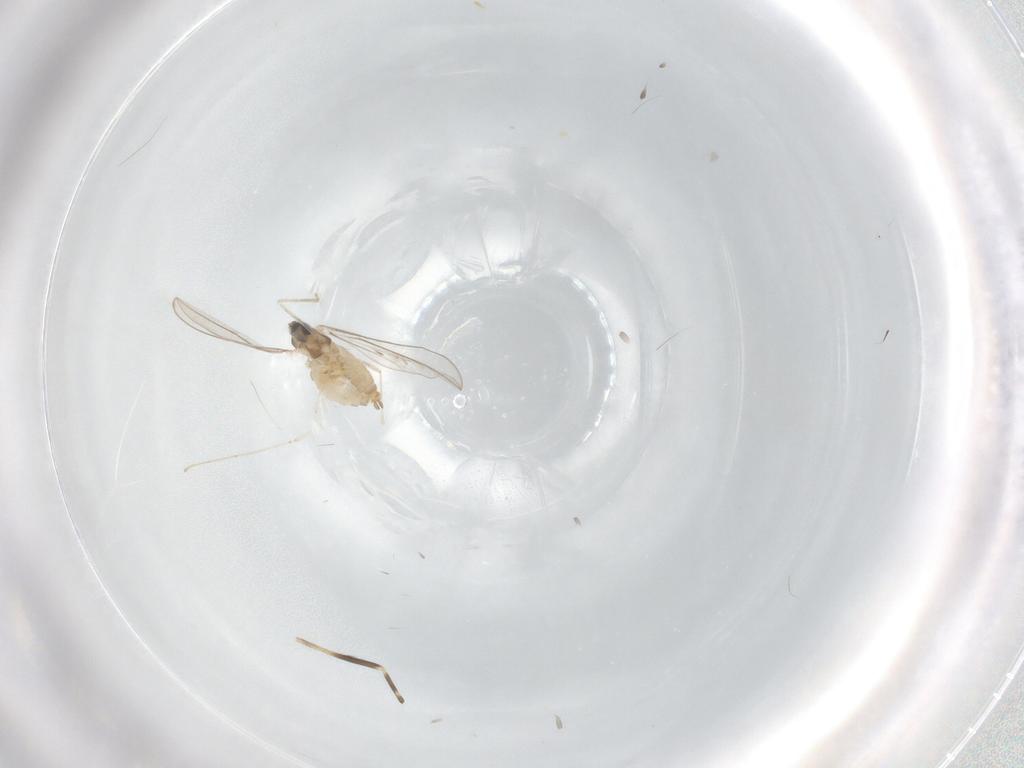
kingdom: Animalia
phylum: Arthropoda
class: Insecta
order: Diptera
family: Cecidomyiidae
